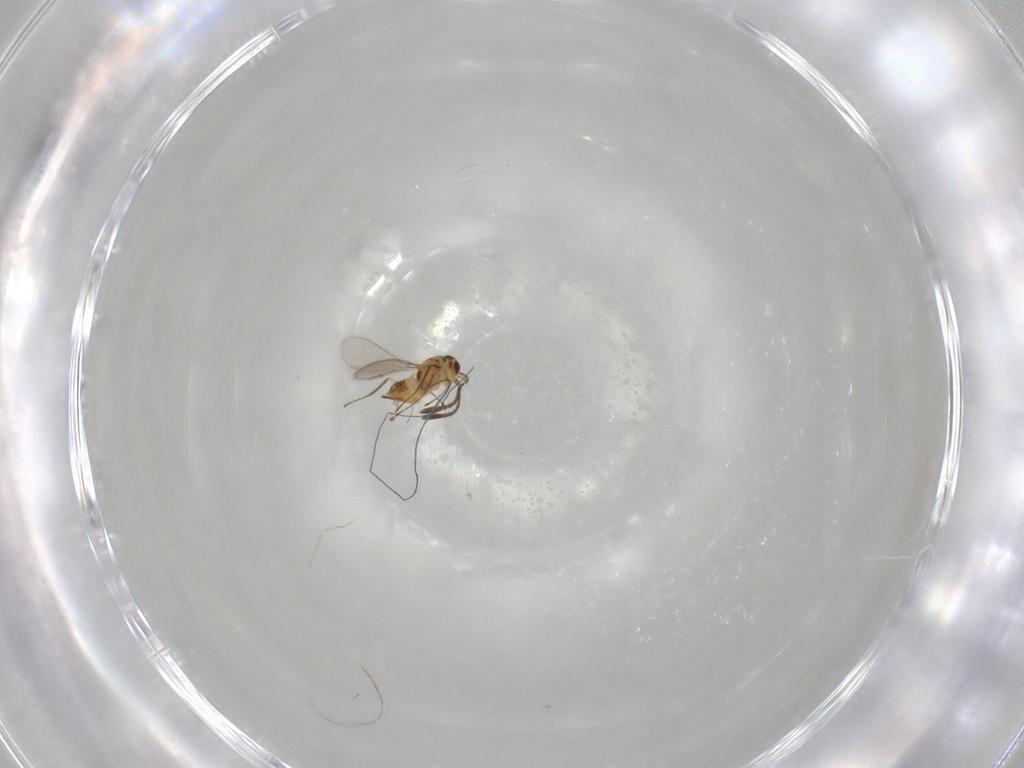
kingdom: Animalia
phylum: Arthropoda
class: Insecta
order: Hymenoptera
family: Mymaridae
